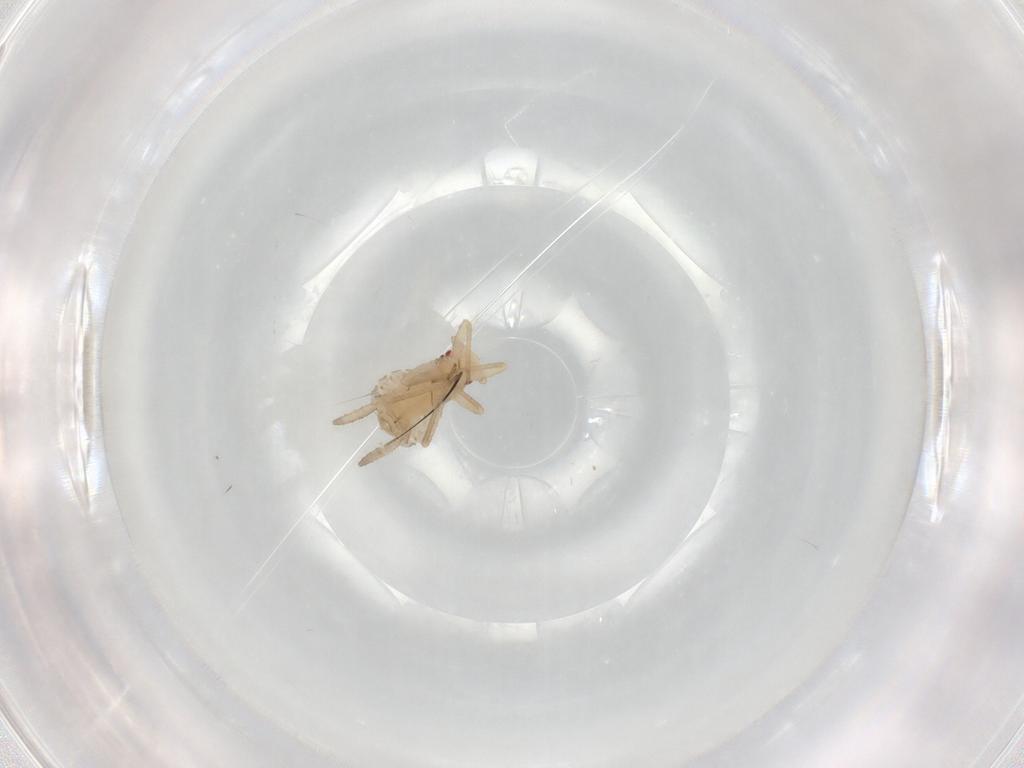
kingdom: Animalia
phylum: Arthropoda
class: Insecta
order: Hemiptera
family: Aphididae
